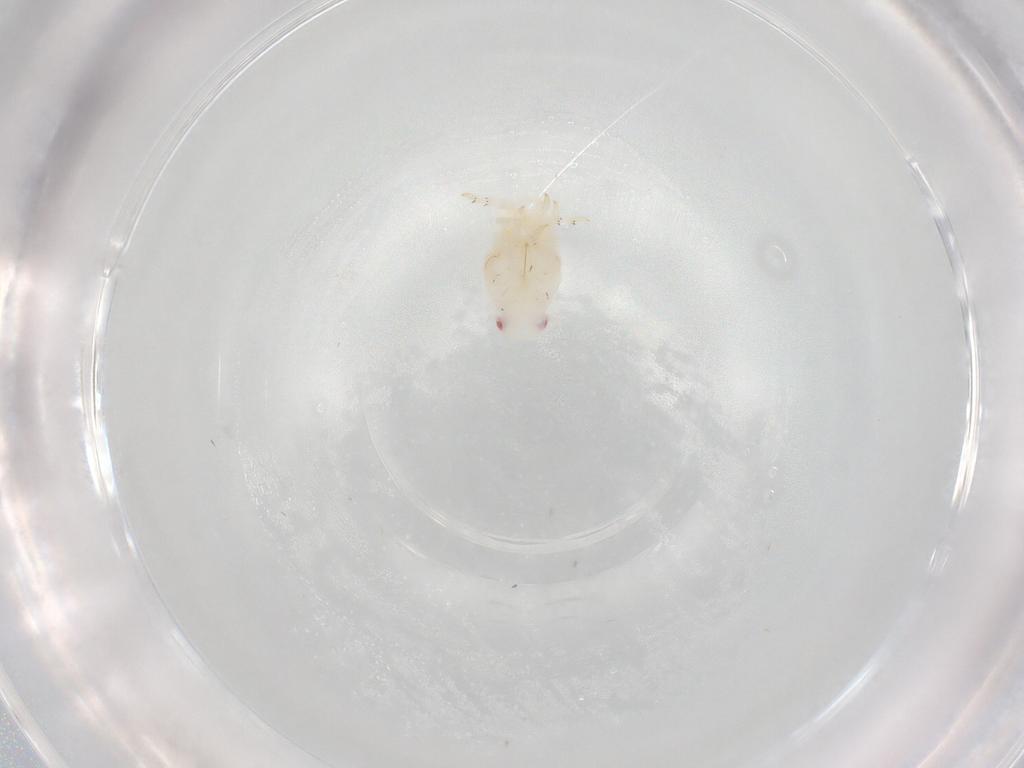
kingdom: Animalia
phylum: Arthropoda
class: Insecta
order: Hemiptera
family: Flatidae
